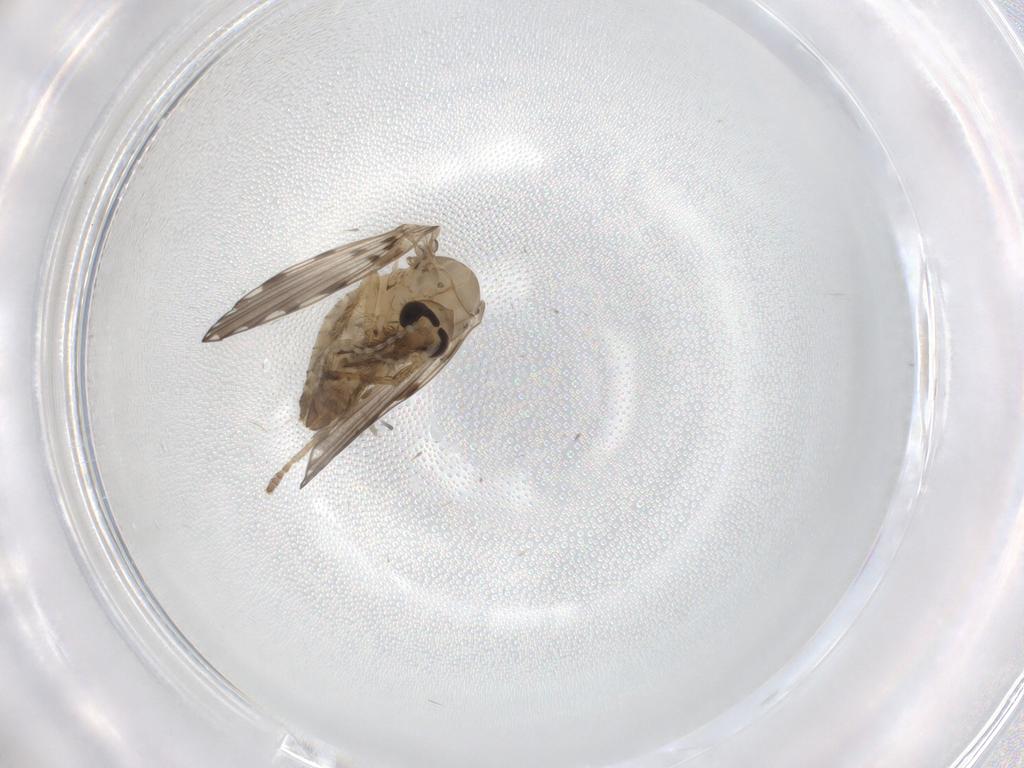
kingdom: Animalia
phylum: Arthropoda
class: Insecta
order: Diptera
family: Psychodidae
